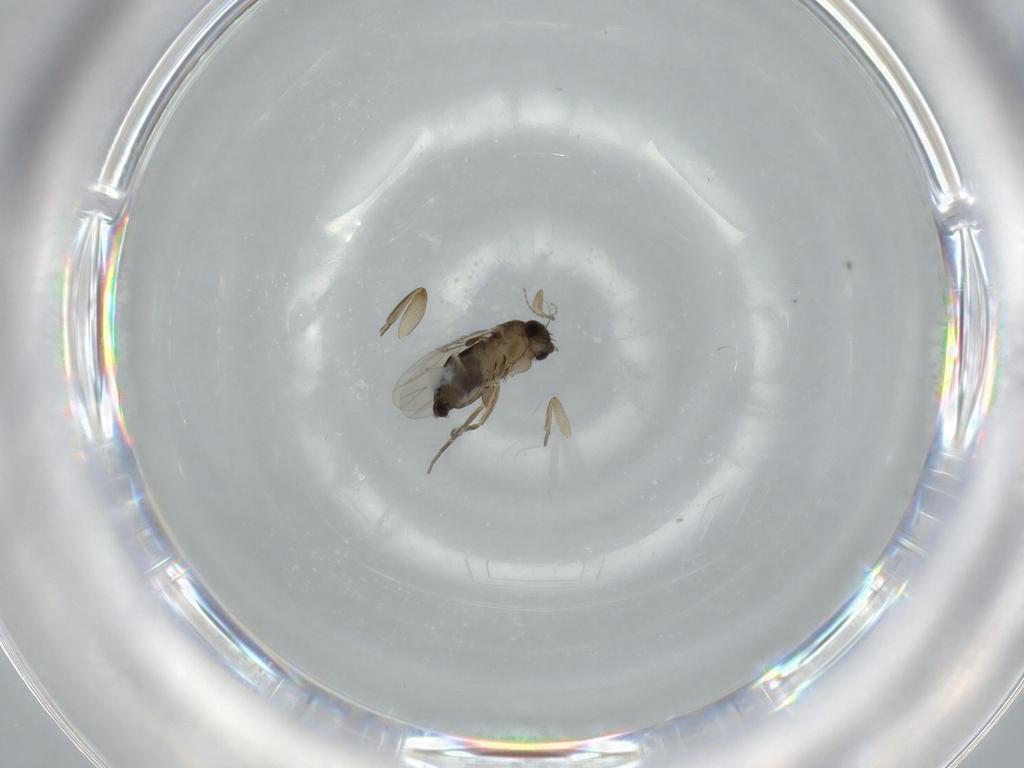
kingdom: Animalia
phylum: Arthropoda
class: Insecta
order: Diptera
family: Phoridae
